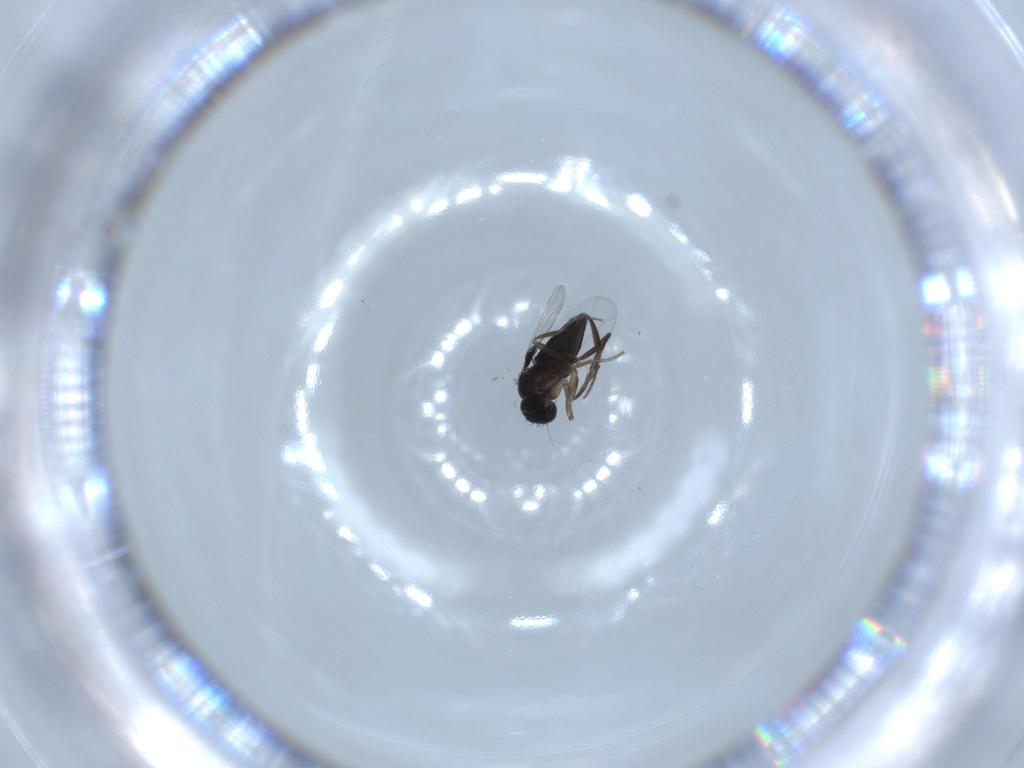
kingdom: Animalia
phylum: Arthropoda
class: Insecta
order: Diptera
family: Phoridae
